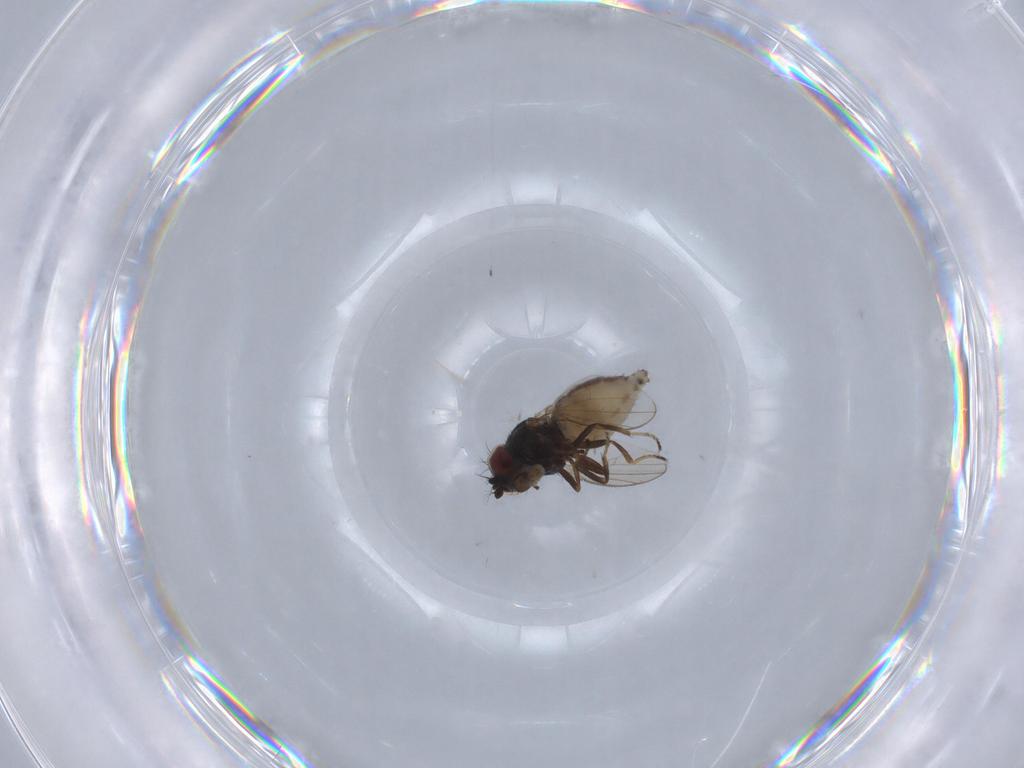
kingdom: Animalia
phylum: Arthropoda
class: Insecta
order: Diptera
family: Ephydridae
